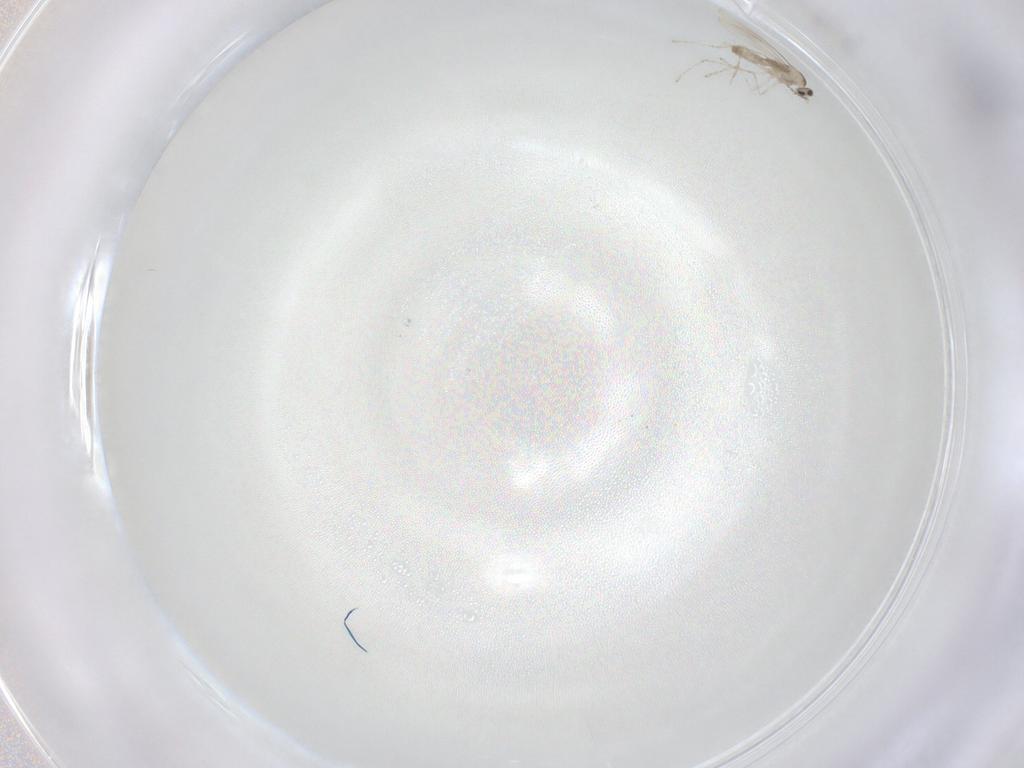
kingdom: Animalia
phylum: Arthropoda
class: Insecta
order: Diptera
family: Cecidomyiidae
